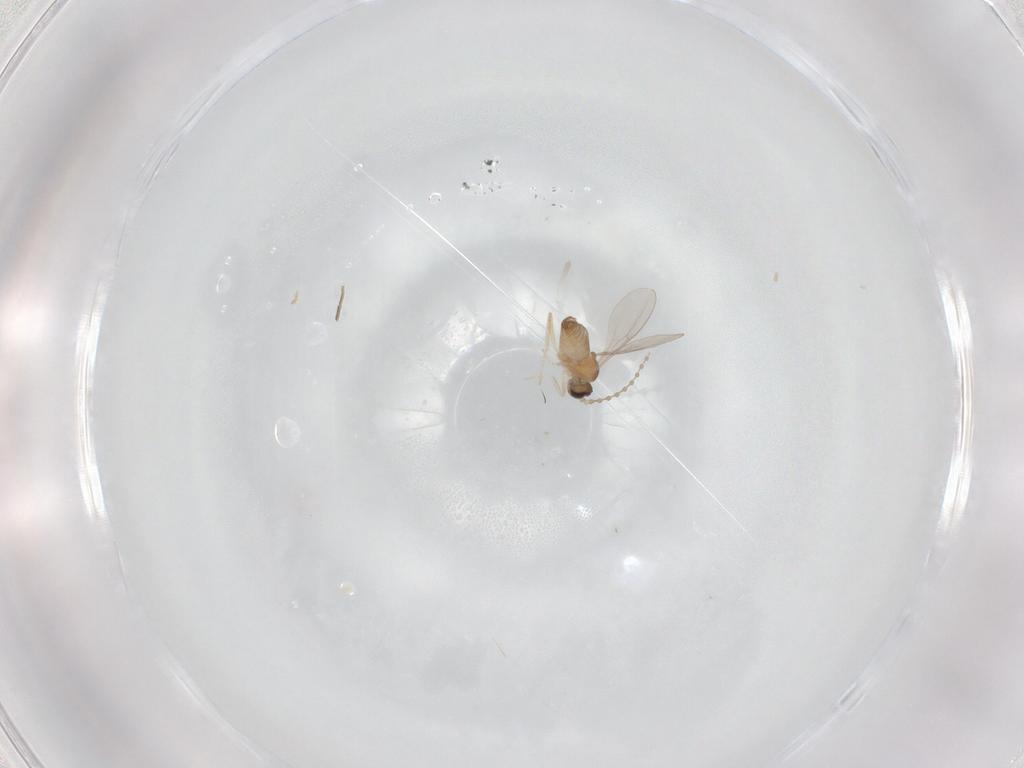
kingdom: Animalia
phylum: Arthropoda
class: Insecta
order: Diptera
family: Cecidomyiidae
